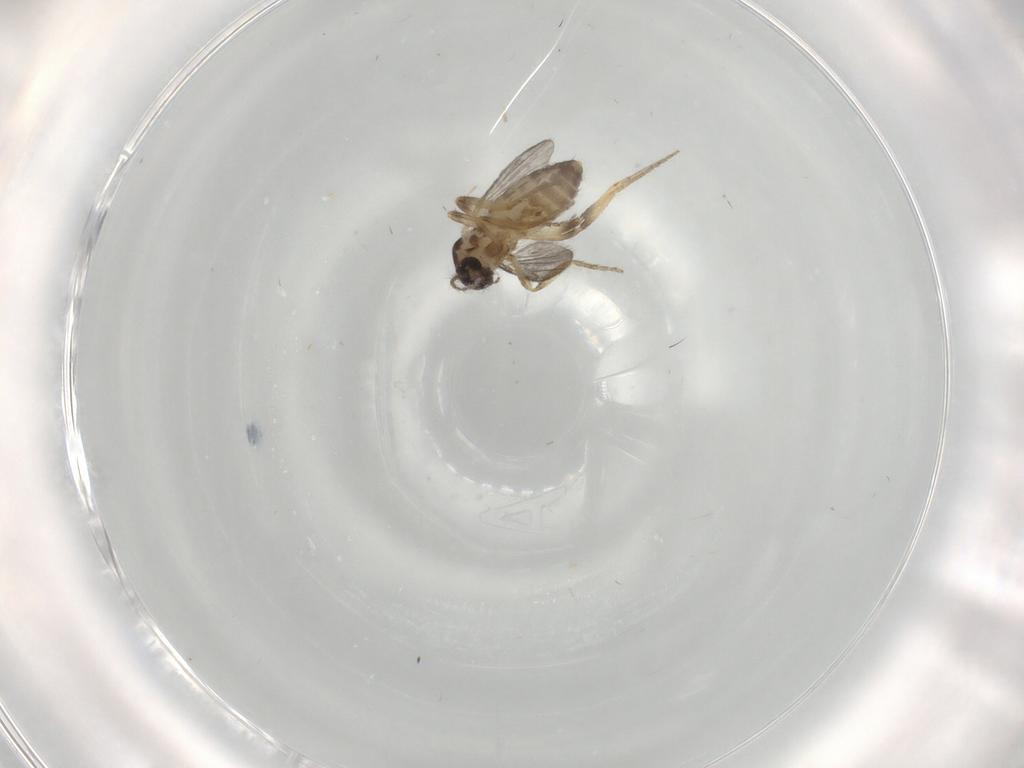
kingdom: Animalia
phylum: Arthropoda
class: Insecta
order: Diptera
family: Ceratopogonidae
